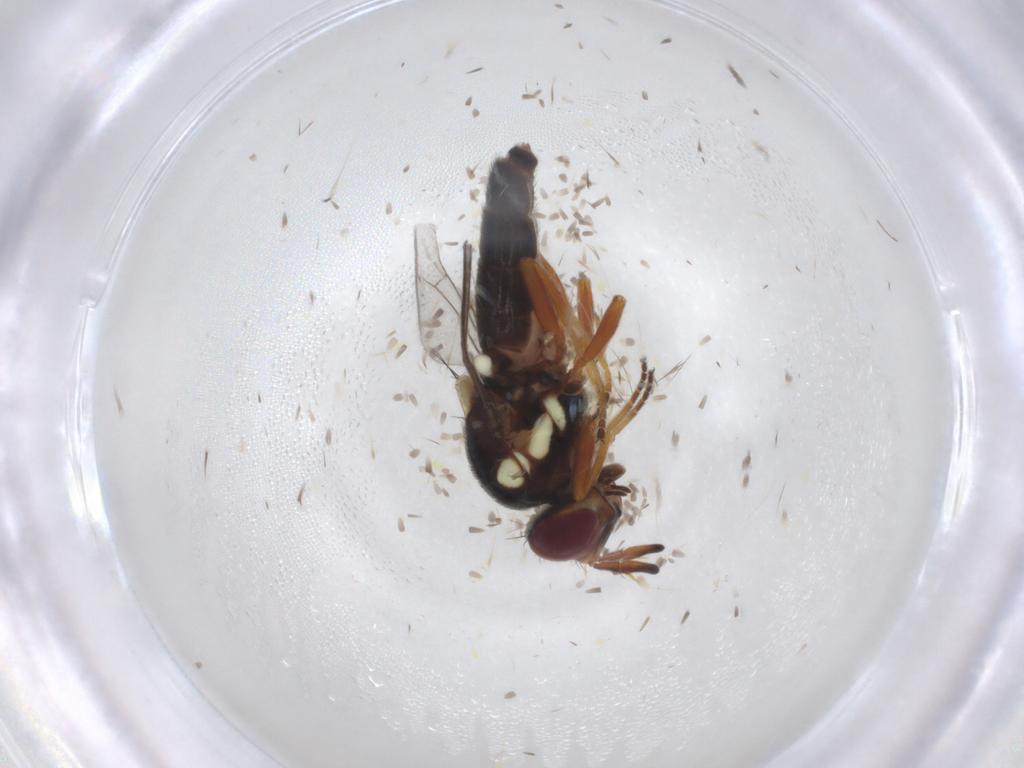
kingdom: Animalia
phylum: Arthropoda
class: Insecta
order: Diptera
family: Chloropidae
